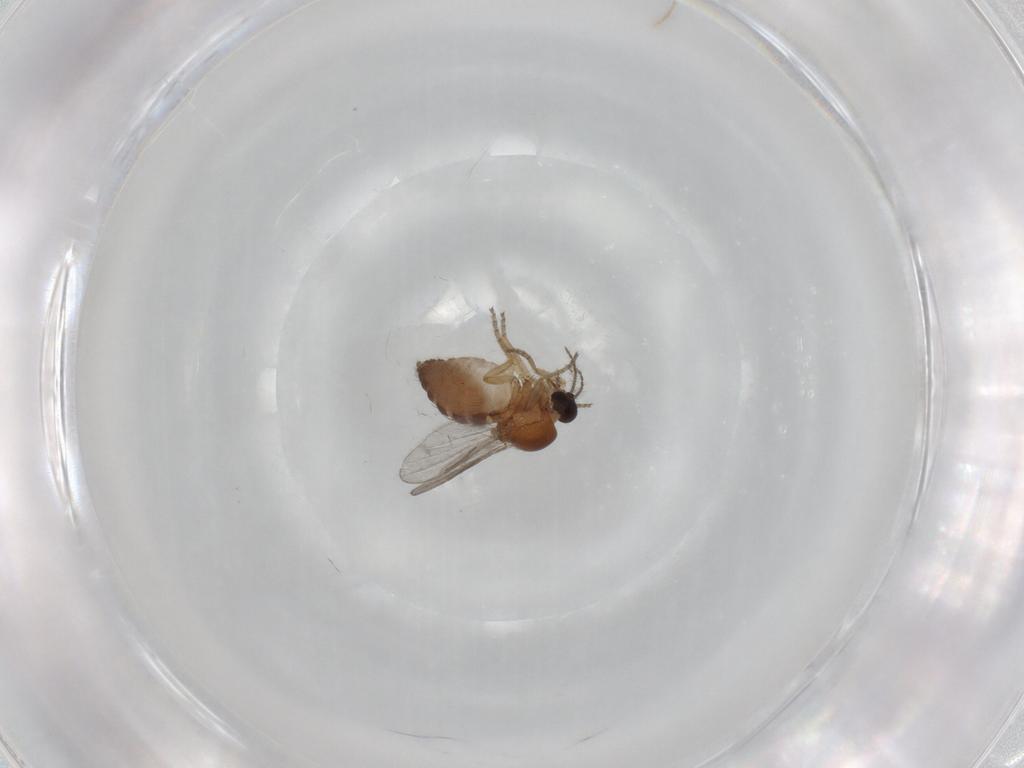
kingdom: Animalia
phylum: Arthropoda
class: Insecta
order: Diptera
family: Ceratopogonidae
